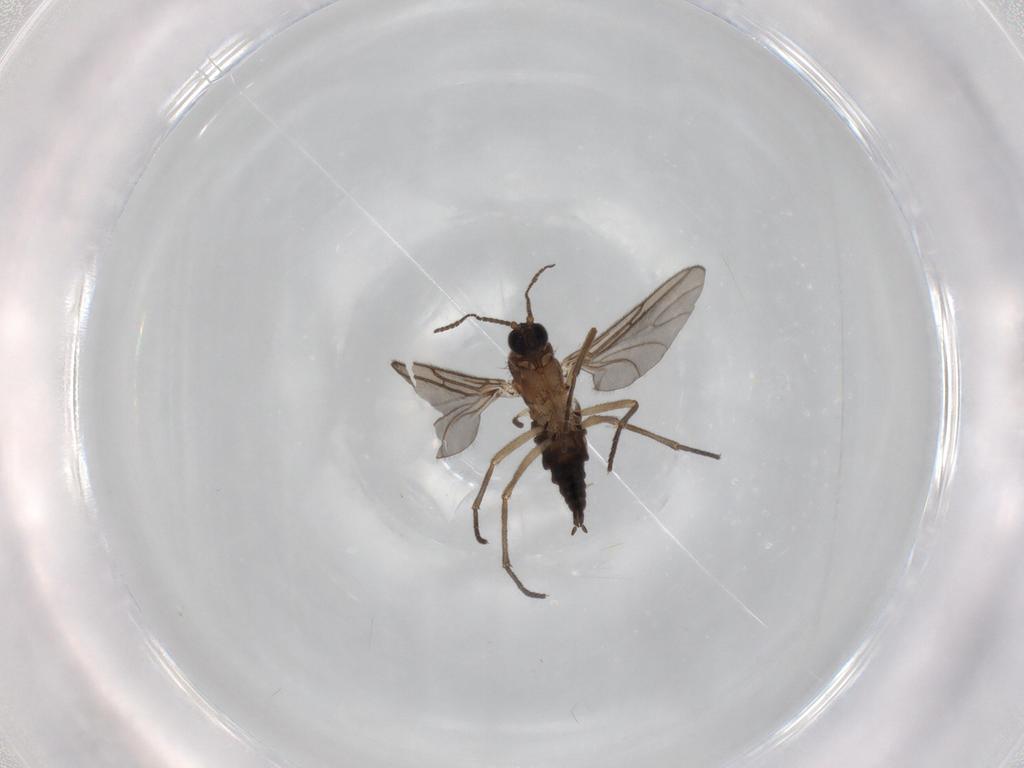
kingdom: Animalia
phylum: Arthropoda
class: Insecta
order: Diptera
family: Sciaridae
